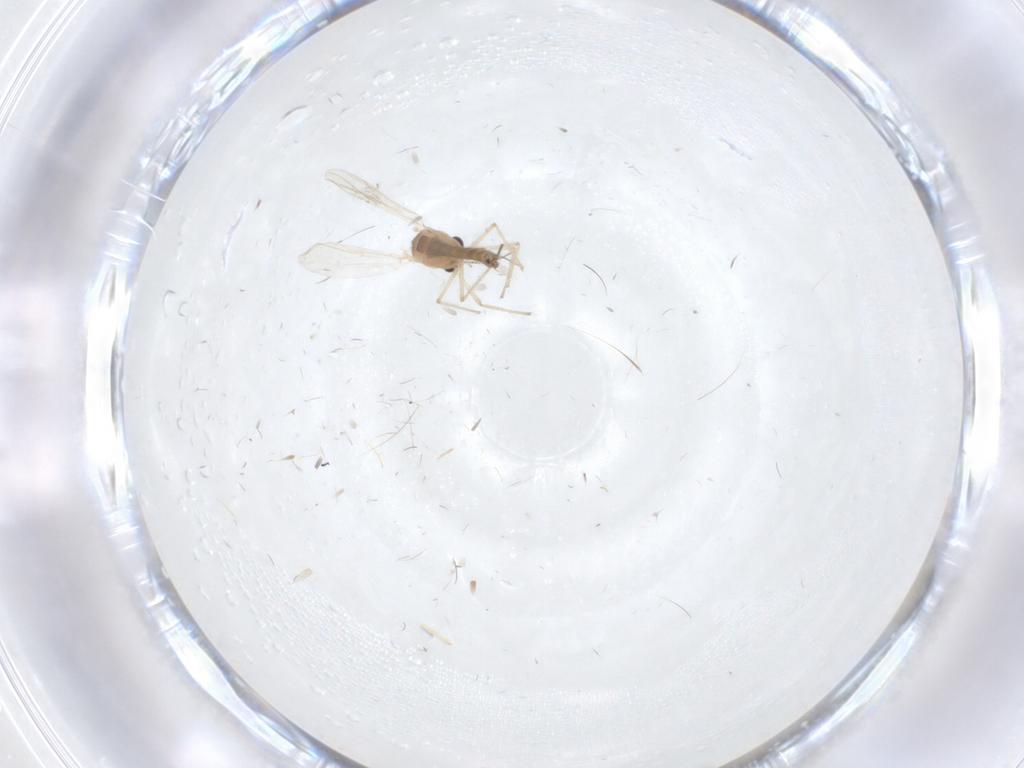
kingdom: Animalia
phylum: Arthropoda
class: Insecta
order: Diptera
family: Chironomidae
